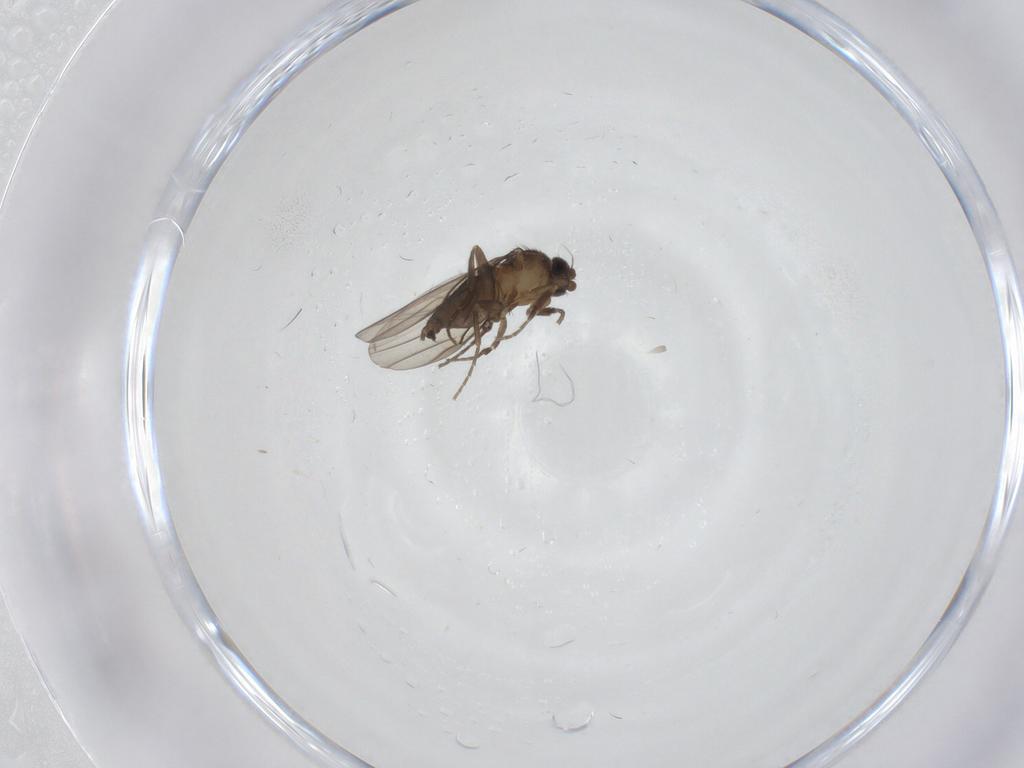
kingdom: Animalia
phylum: Arthropoda
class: Insecta
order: Diptera
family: Phoridae
